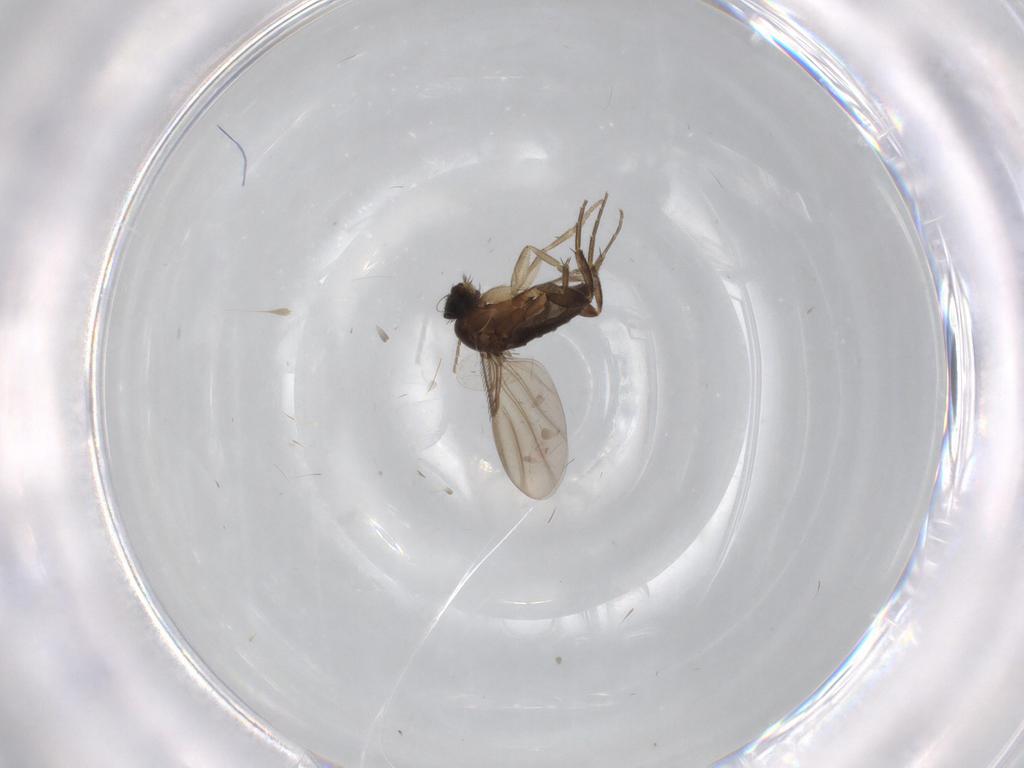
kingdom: Animalia
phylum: Arthropoda
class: Insecta
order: Diptera
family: Phoridae
